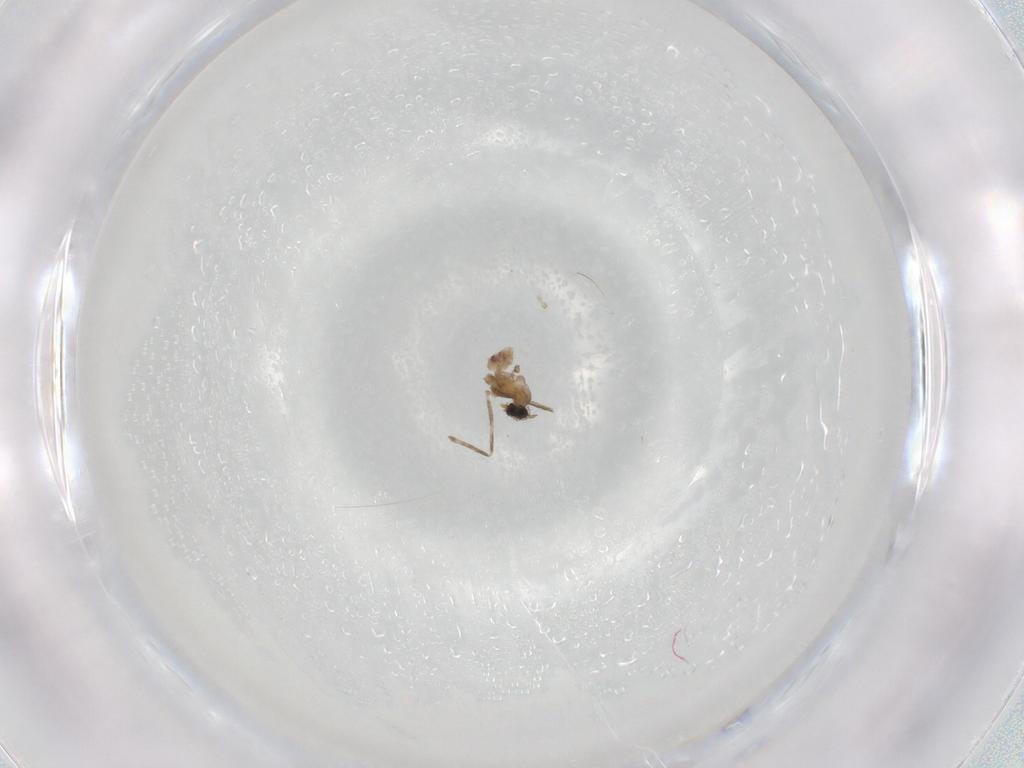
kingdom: Animalia
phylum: Arthropoda
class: Insecta
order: Diptera
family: Cecidomyiidae
